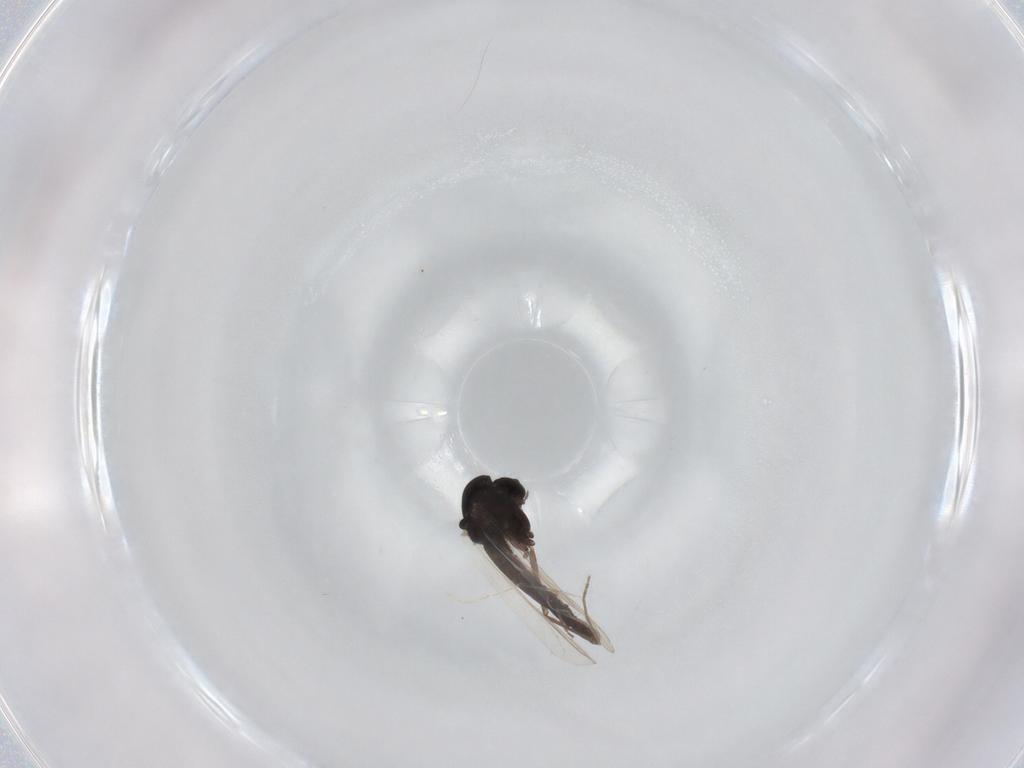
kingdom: Animalia
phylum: Arthropoda
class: Insecta
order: Diptera
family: Chironomidae
